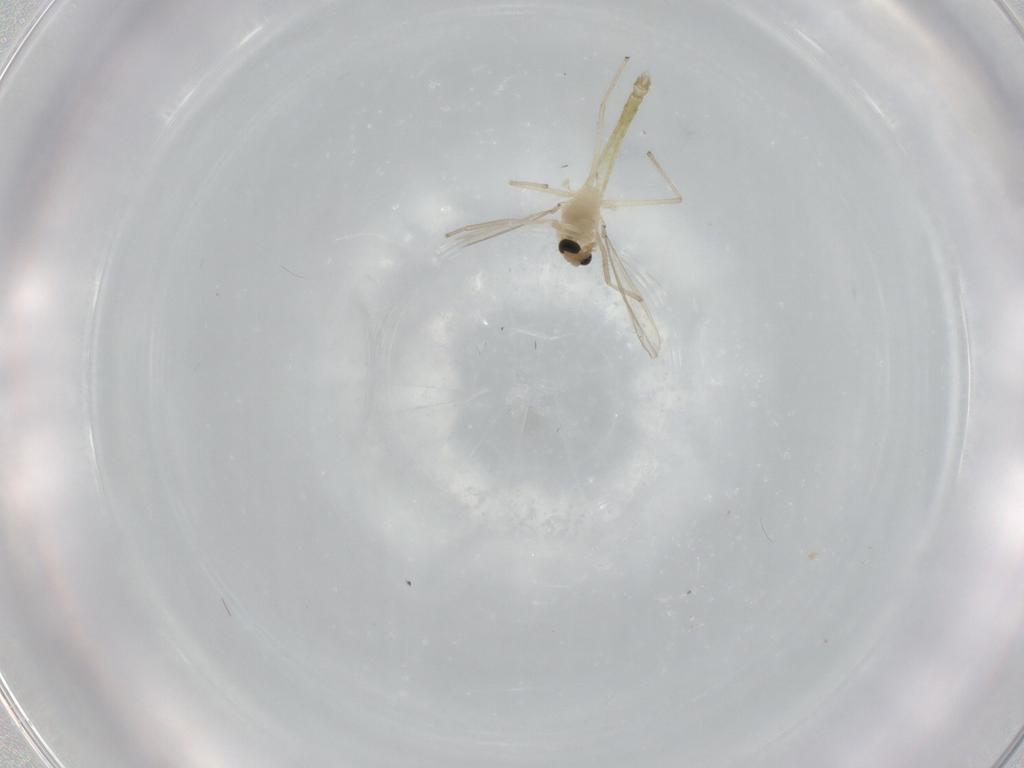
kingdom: Animalia
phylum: Arthropoda
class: Insecta
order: Diptera
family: Chironomidae
